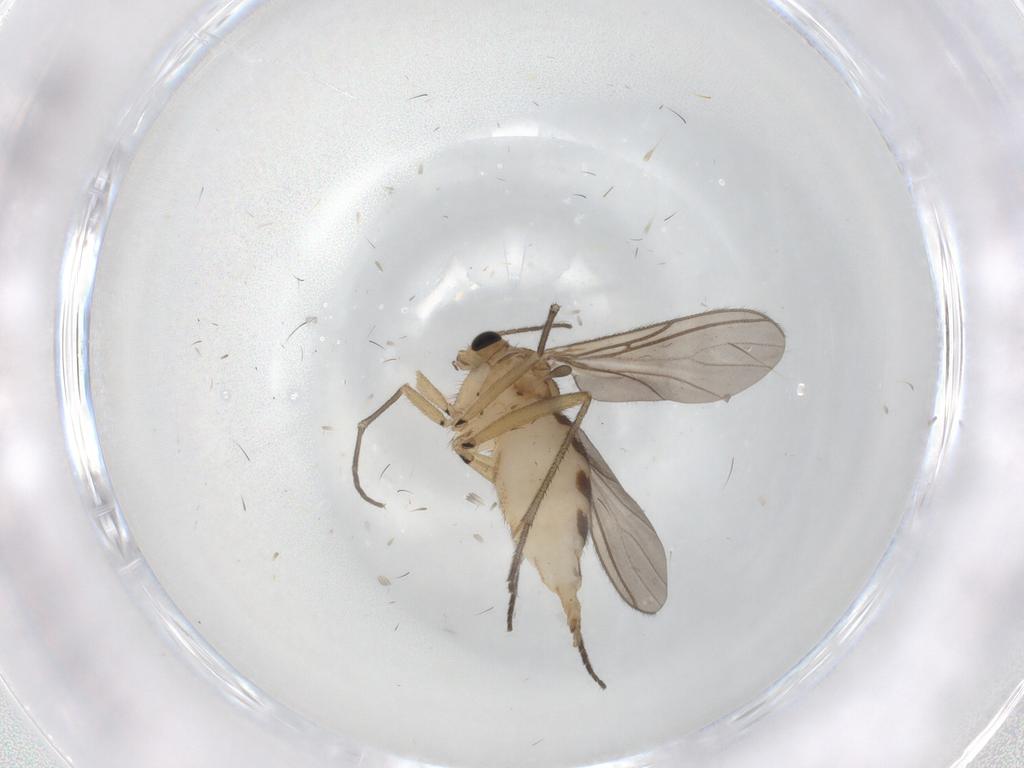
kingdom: Animalia
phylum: Arthropoda
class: Insecta
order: Diptera
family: Sciaridae
